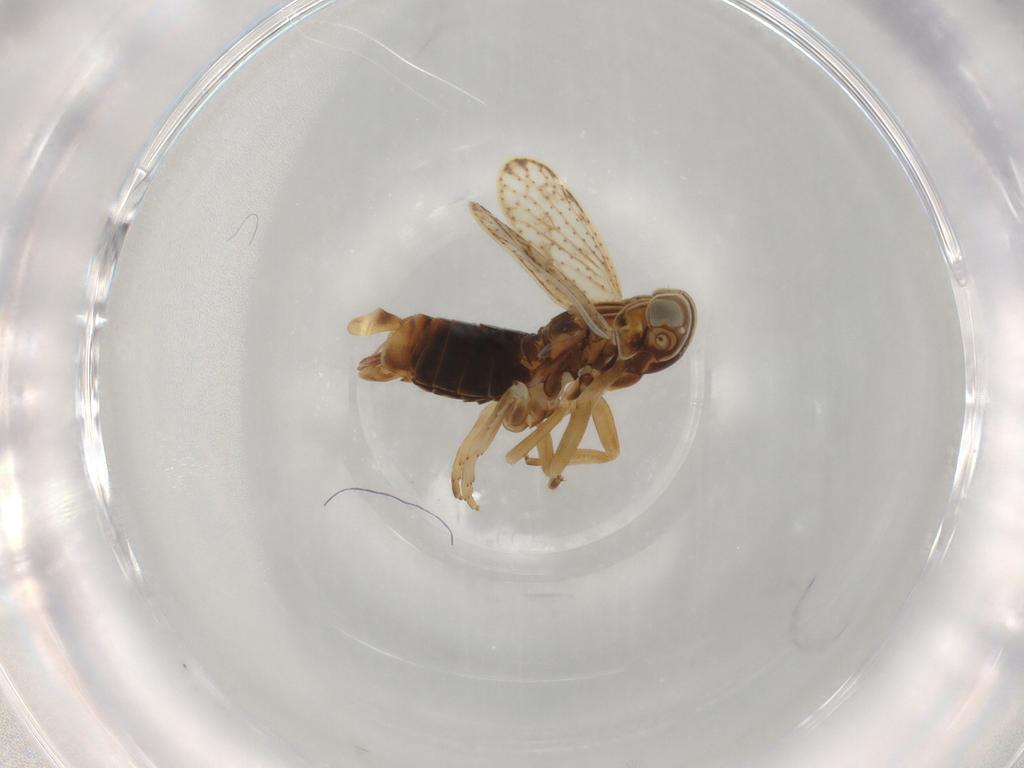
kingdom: Animalia
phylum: Arthropoda
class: Insecta
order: Hemiptera
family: Cixiidae
